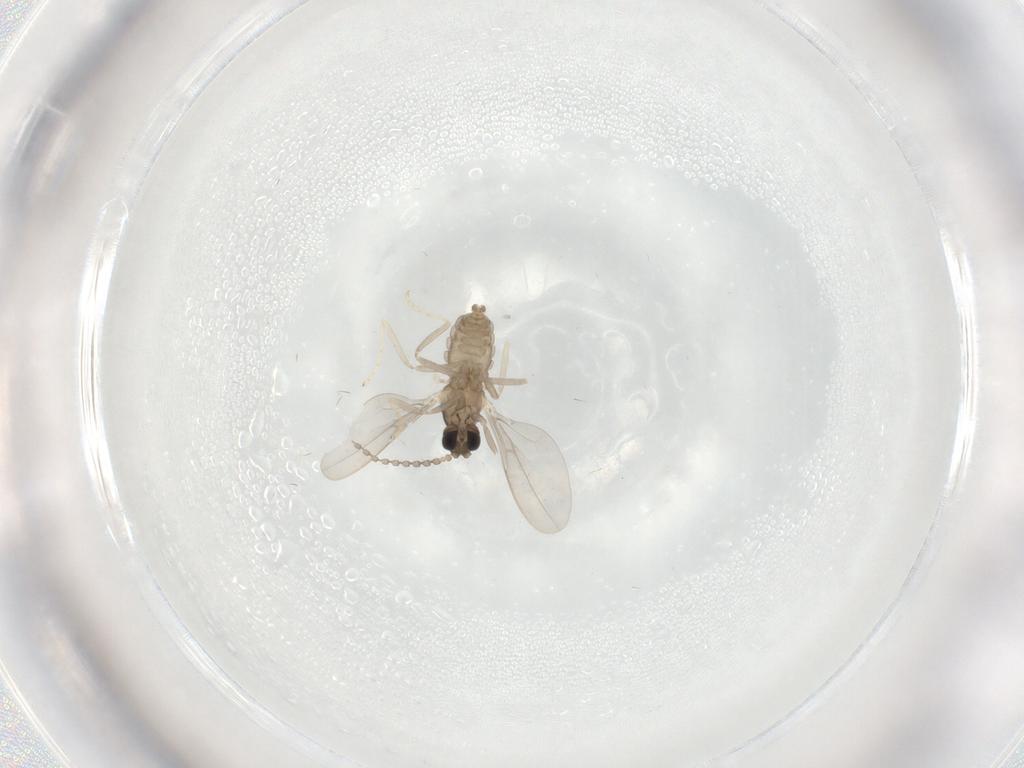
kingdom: Animalia
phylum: Arthropoda
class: Insecta
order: Diptera
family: Cecidomyiidae
